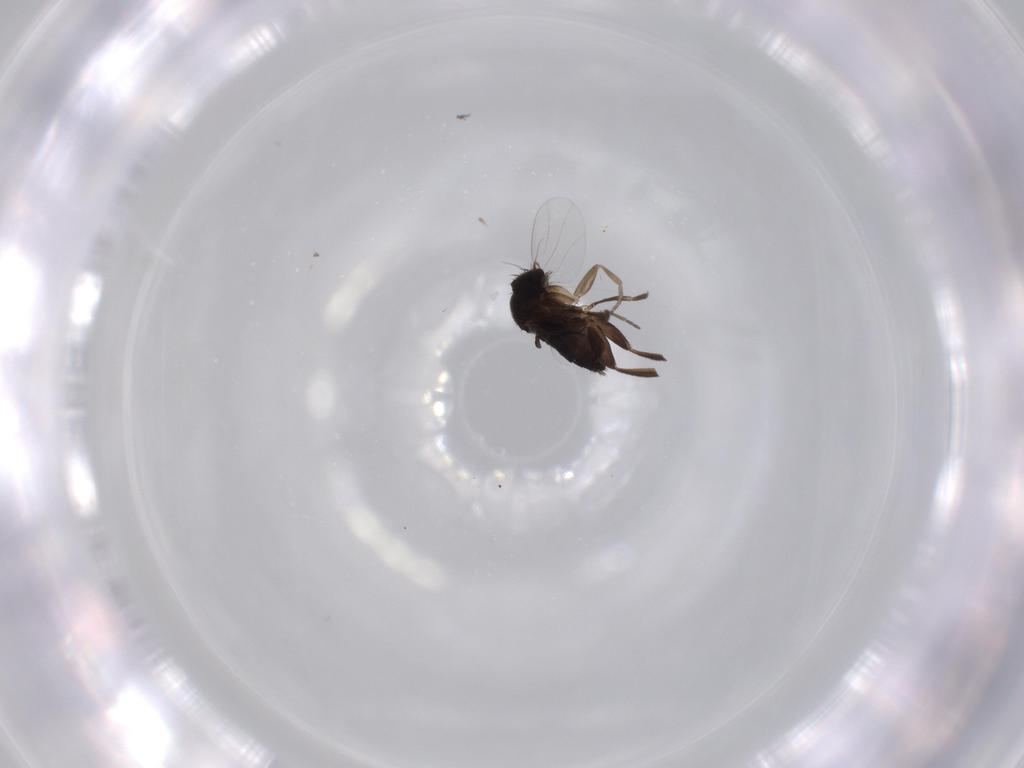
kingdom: Animalia
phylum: Arthropoda
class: Insecta
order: Diptera
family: Phoridae
